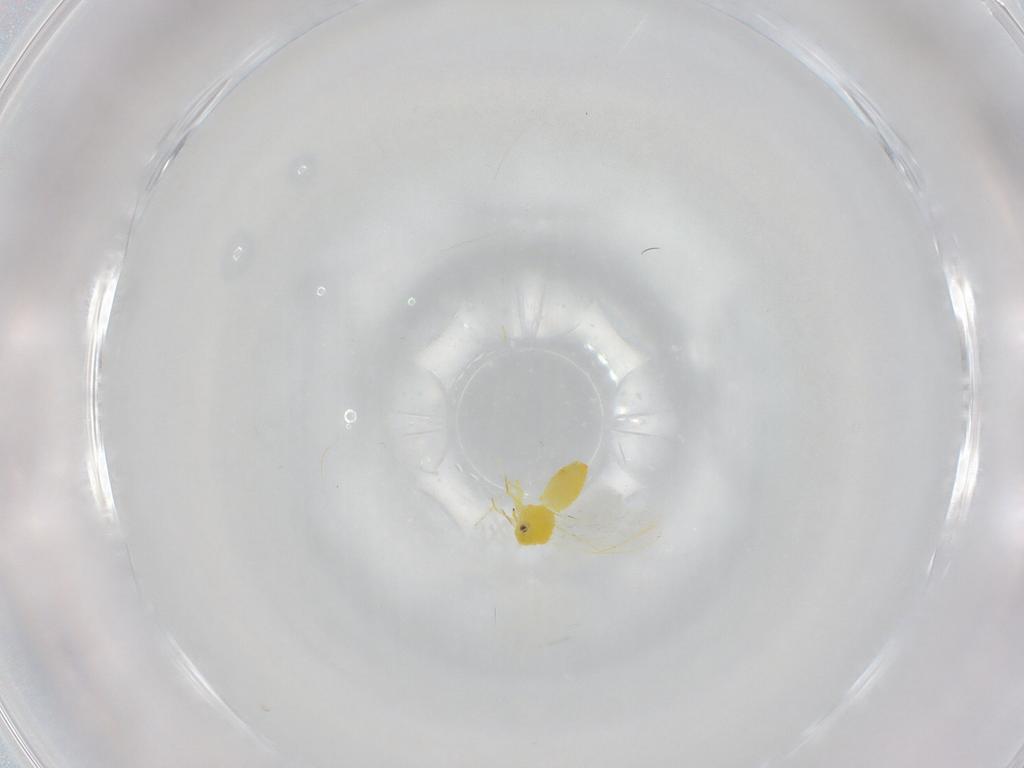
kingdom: Animalia
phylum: Arthropoda
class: Insecta
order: Hemiptera
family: Aleyrodidae
